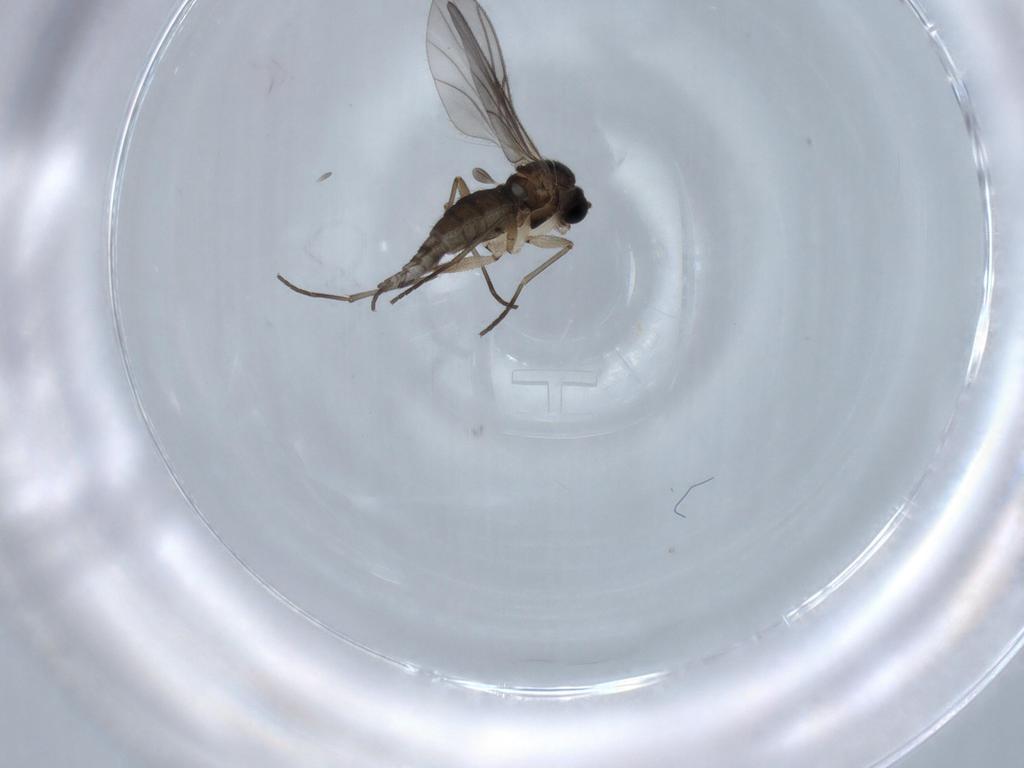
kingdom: Animalia
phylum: Arthropoda
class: Insecta
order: Diptera
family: Sciaridae
